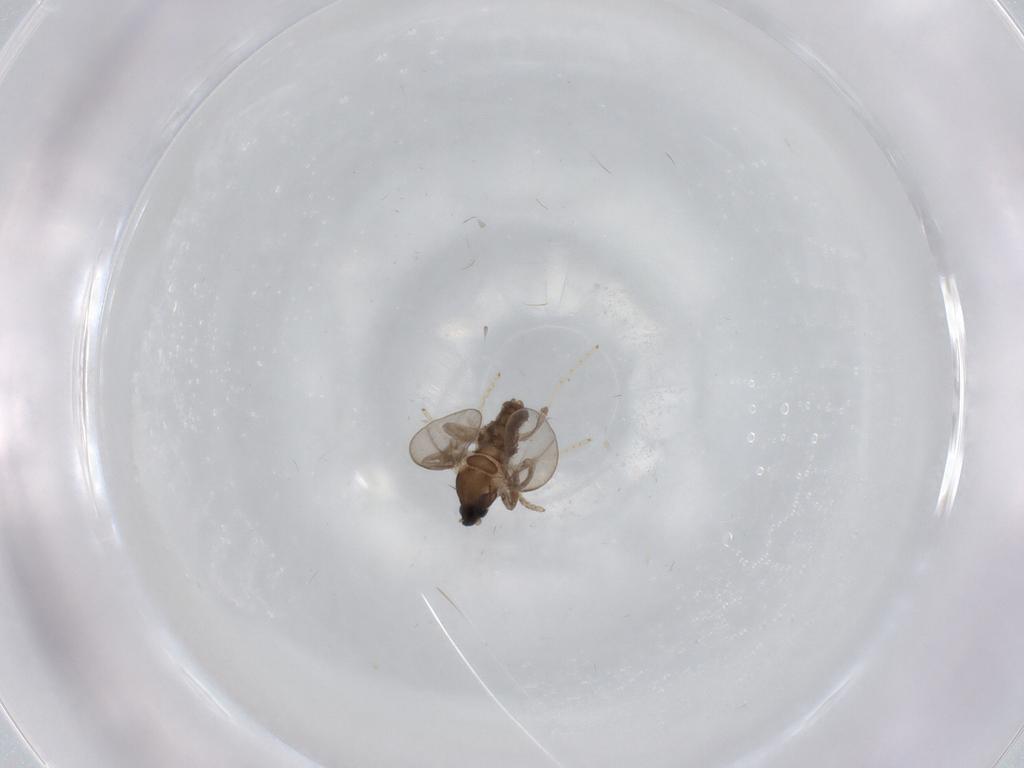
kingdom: Animalia
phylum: Arthropoda
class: Insecta
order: Diptera
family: Cecidomyiidae
